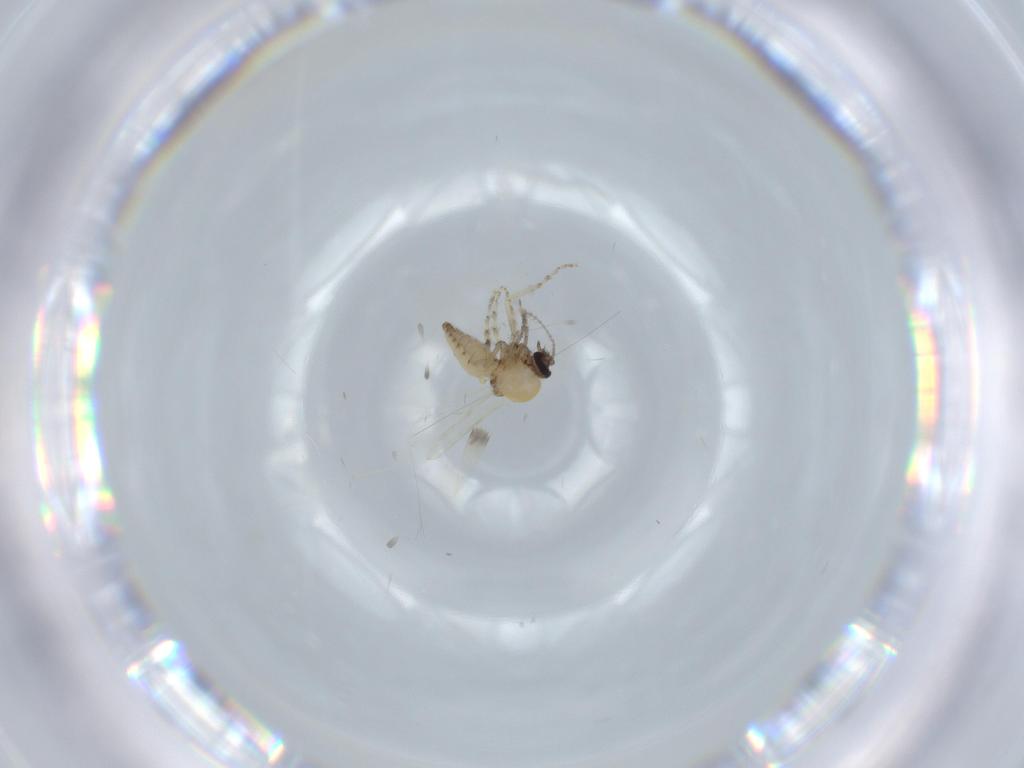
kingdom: Animalia
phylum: Arthropoda
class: Insecta
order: Diptera
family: Ceratopogonidae
